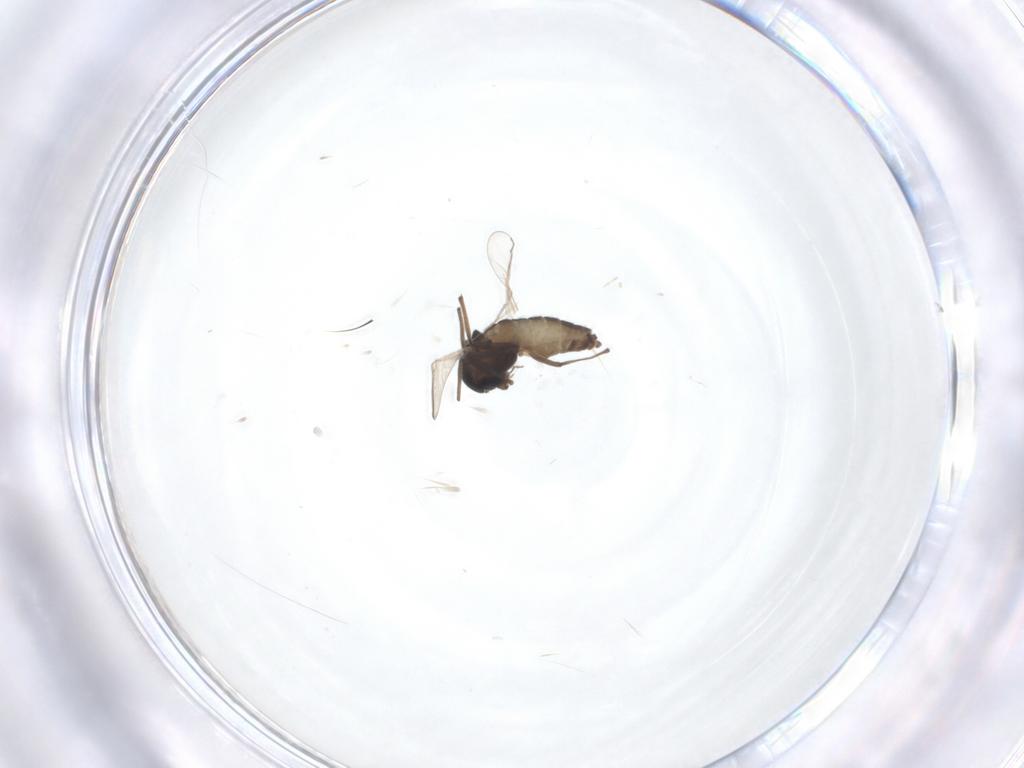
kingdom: Animalia
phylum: Arthropoda
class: Insecta
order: Diptera
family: Chironomidae
